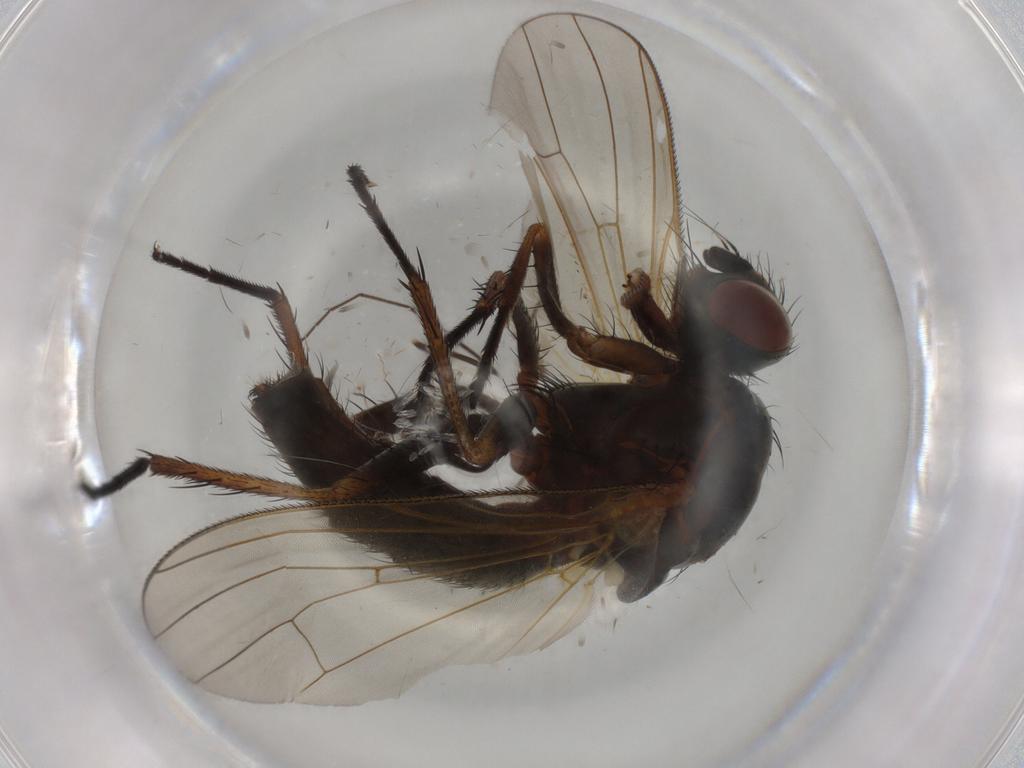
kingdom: Animalia
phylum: Arthropoda
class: Insecta
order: Diptera
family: Anthomyiidae
